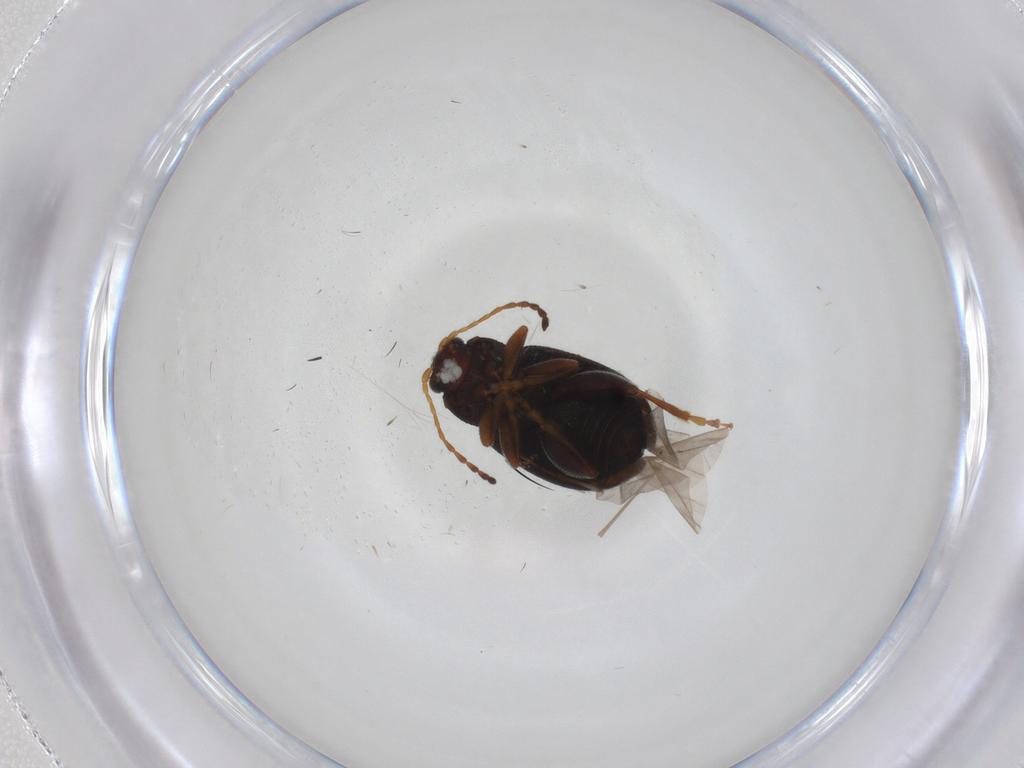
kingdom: Animalia
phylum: Arthropoda
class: Insecta
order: Coleoptera
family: Chrysomelidae
